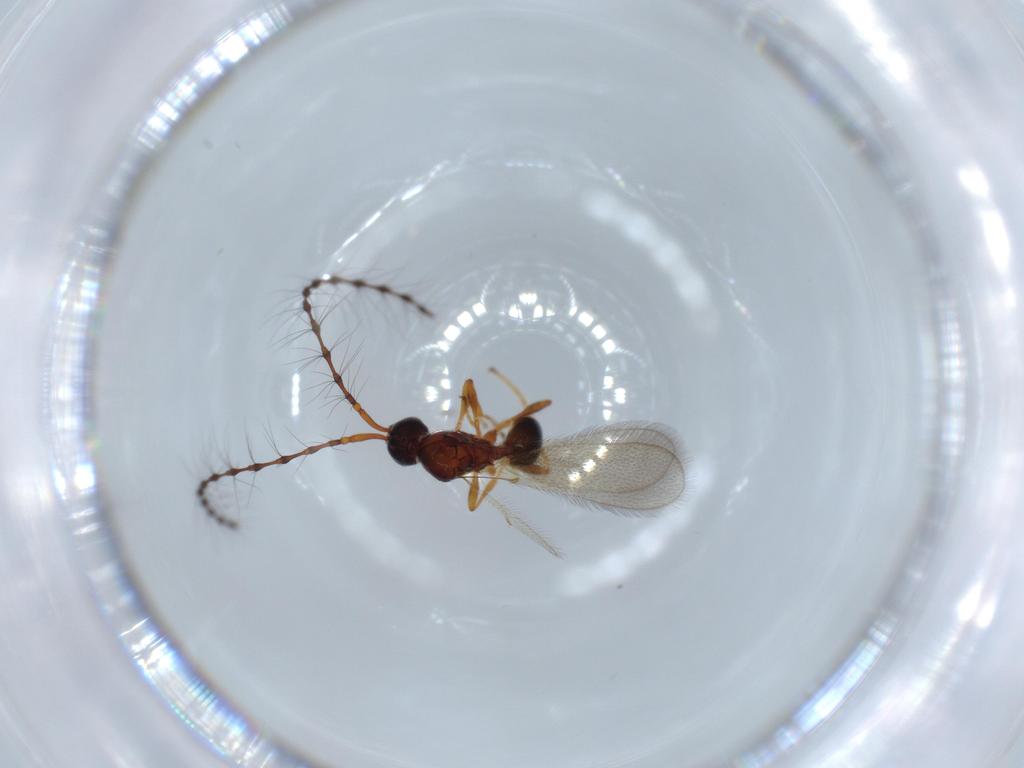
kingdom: Animalia
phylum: Arthropoda
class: Insecta
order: Hymenoptera
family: Diapriidae
